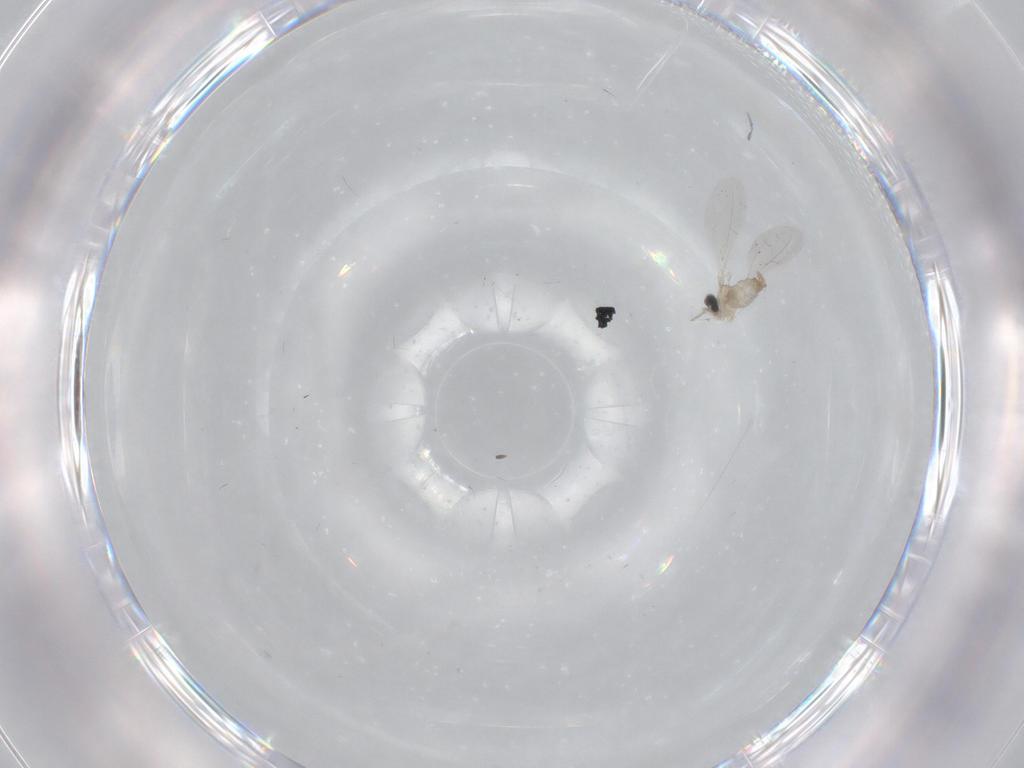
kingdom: Animalia
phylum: Arthropoda
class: Insecta
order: Diptera
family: Cecidomyiidae
